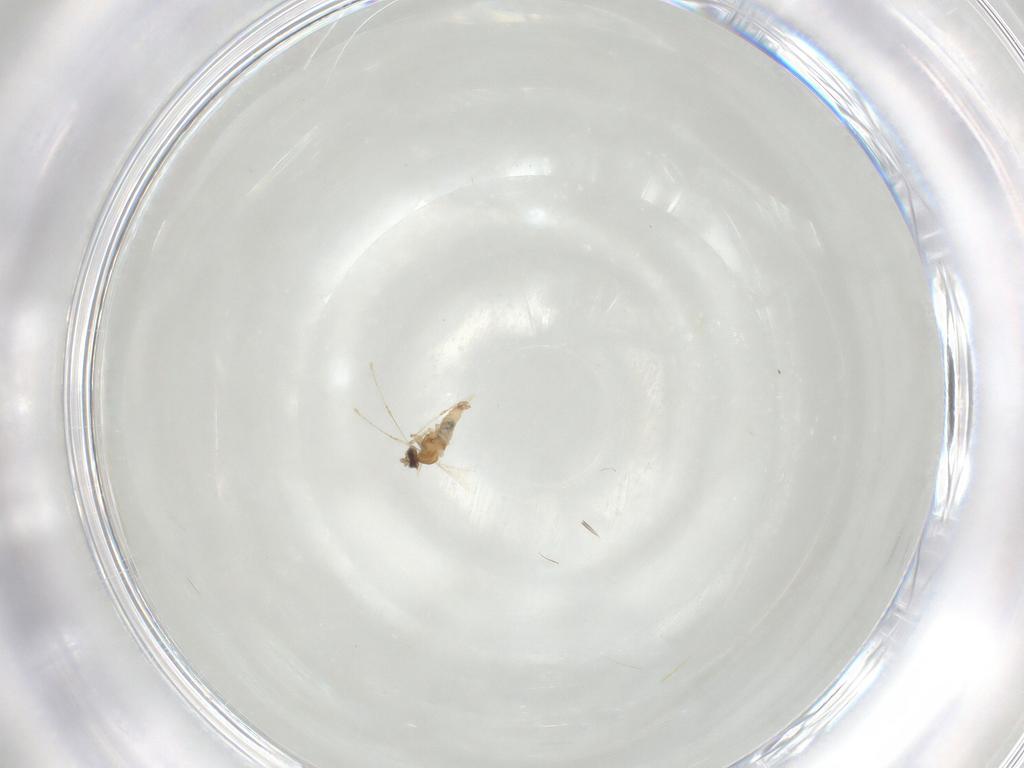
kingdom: Animalia
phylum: Arthropoda
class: Insecta
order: Diptera
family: Cecidomyiidae
